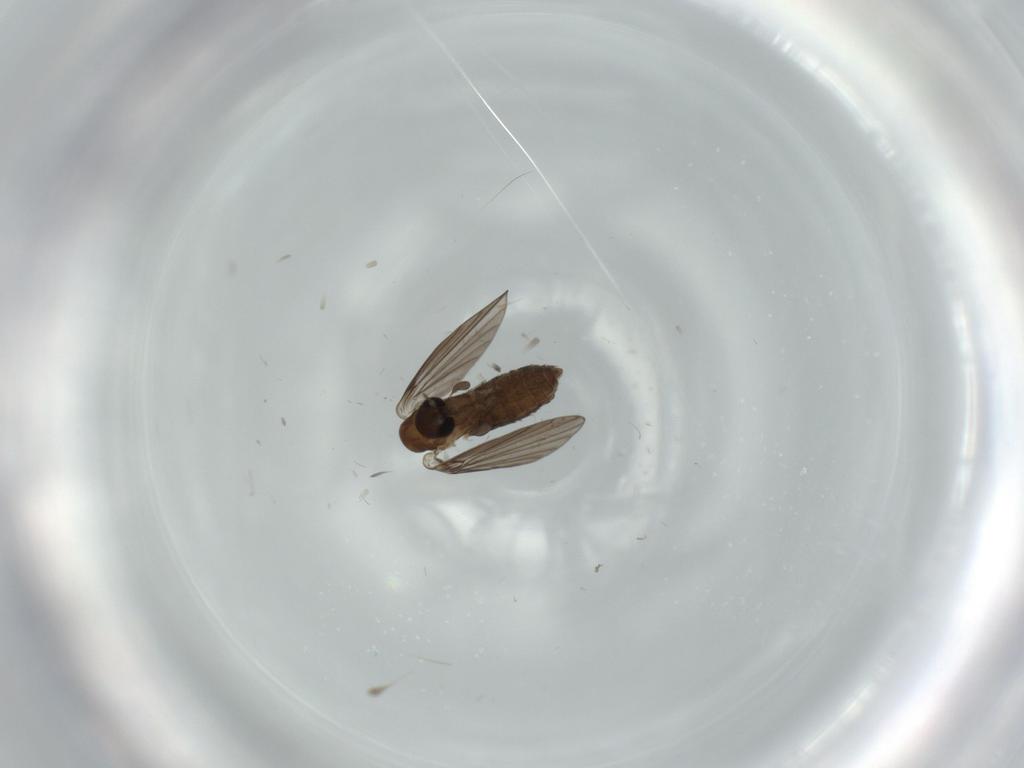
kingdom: Animalia
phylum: Arthropoda
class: Insecta
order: Diptera
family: Psychodidae
